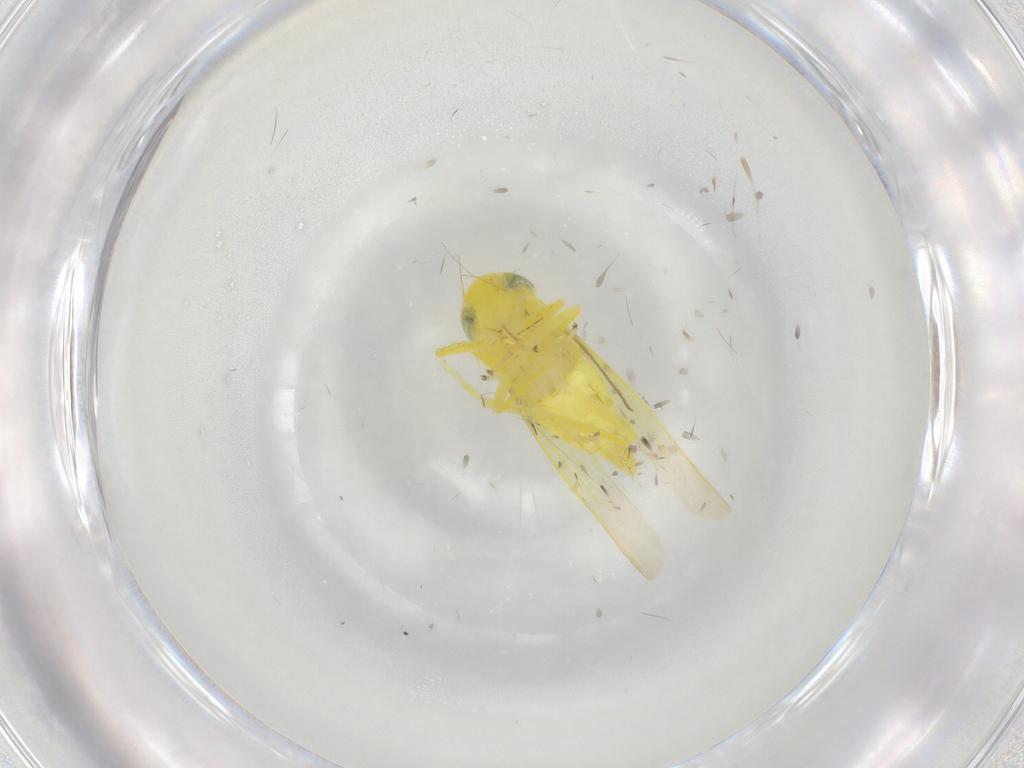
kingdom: Animalia
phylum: Arthropoda
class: Insecta
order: Hemiptera
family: Cicadellidae
